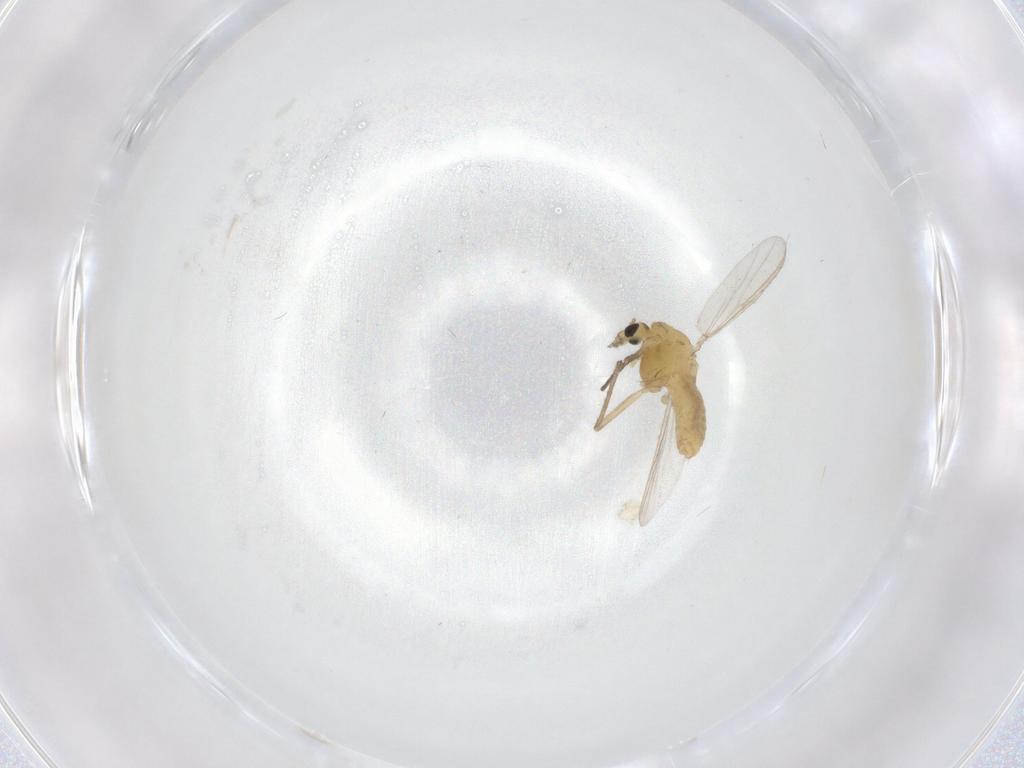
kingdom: Animalia
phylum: Arthropoda
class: Insecta
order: Diptera
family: Chironomidae
